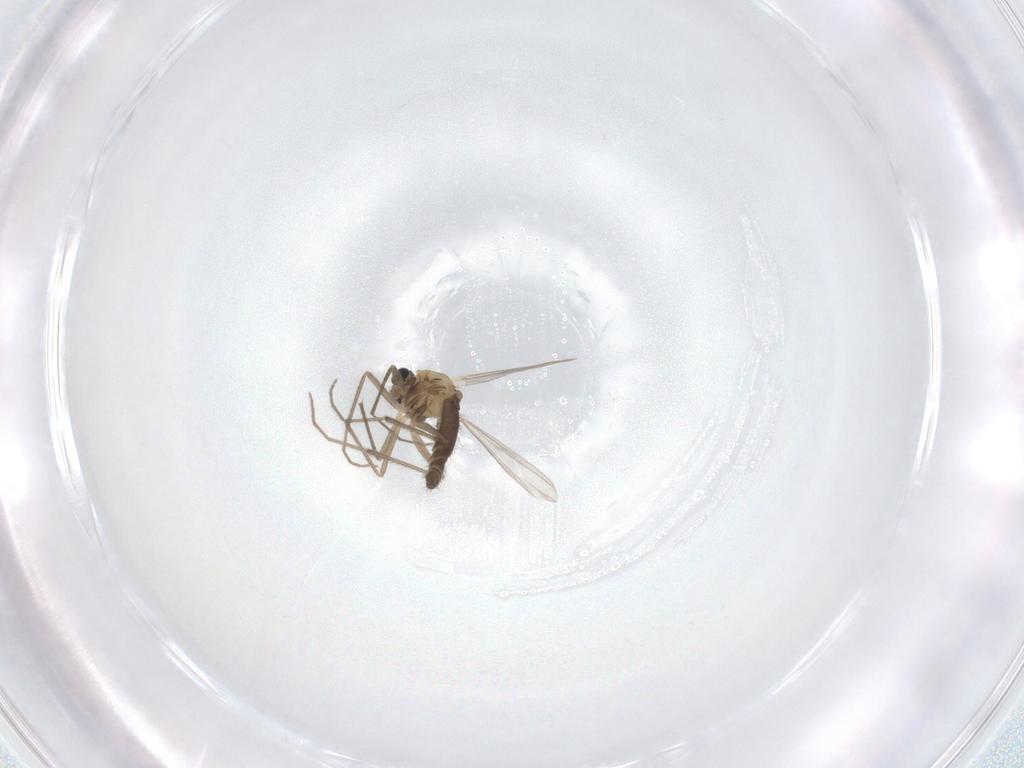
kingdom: Animalia
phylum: Arthropoda
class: Insecta
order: Diptera
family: Chironomidae
